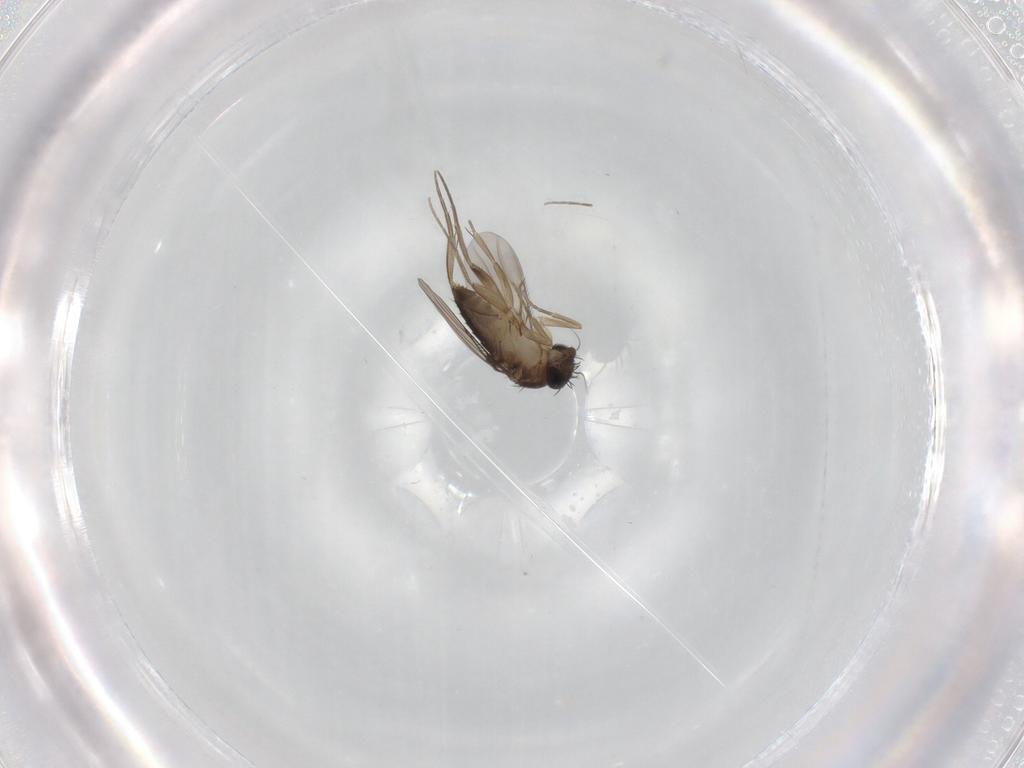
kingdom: Animalia
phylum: Arthropoda
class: Insecta
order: Diptera
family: Phoridae
